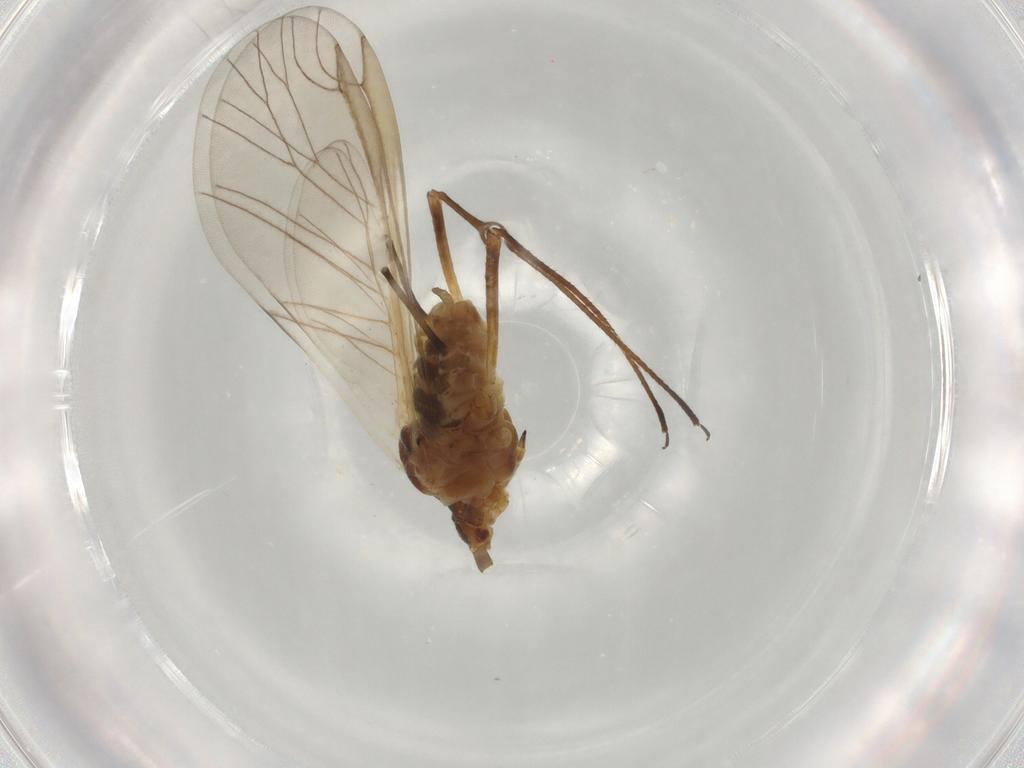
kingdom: Animalia
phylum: Arthropoda
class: Insecta
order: Hemiptera
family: Aphididae
